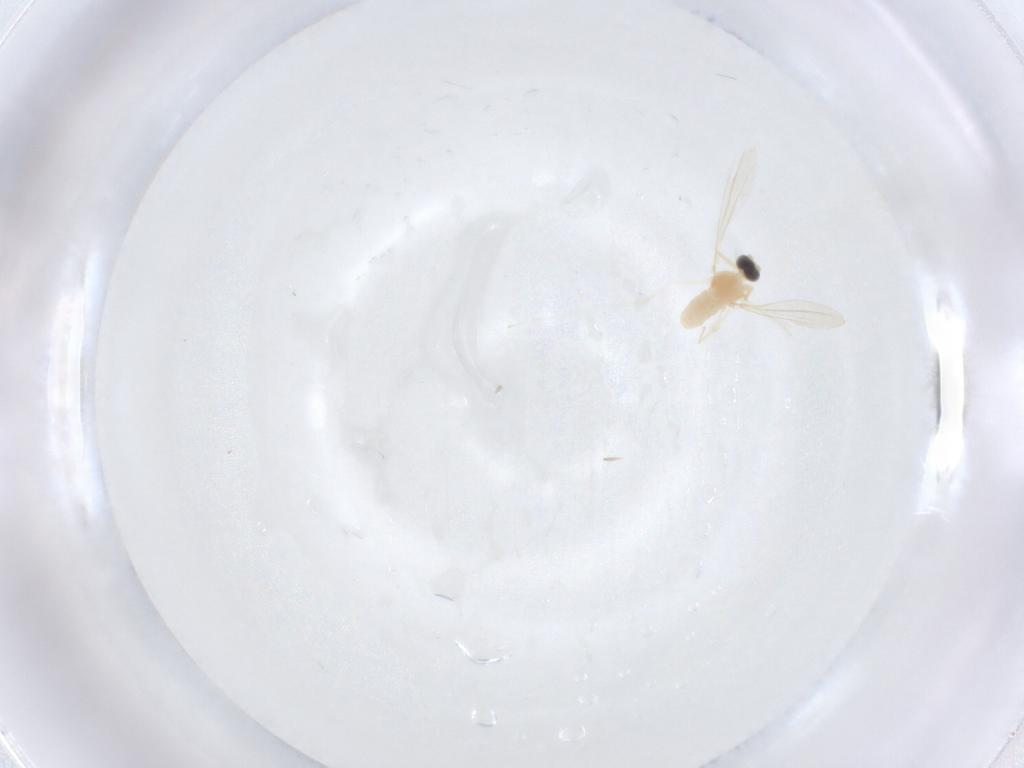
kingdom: Animalia
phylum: Arthropoda
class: Insecta
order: Diptera
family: Cecidomyiidae
